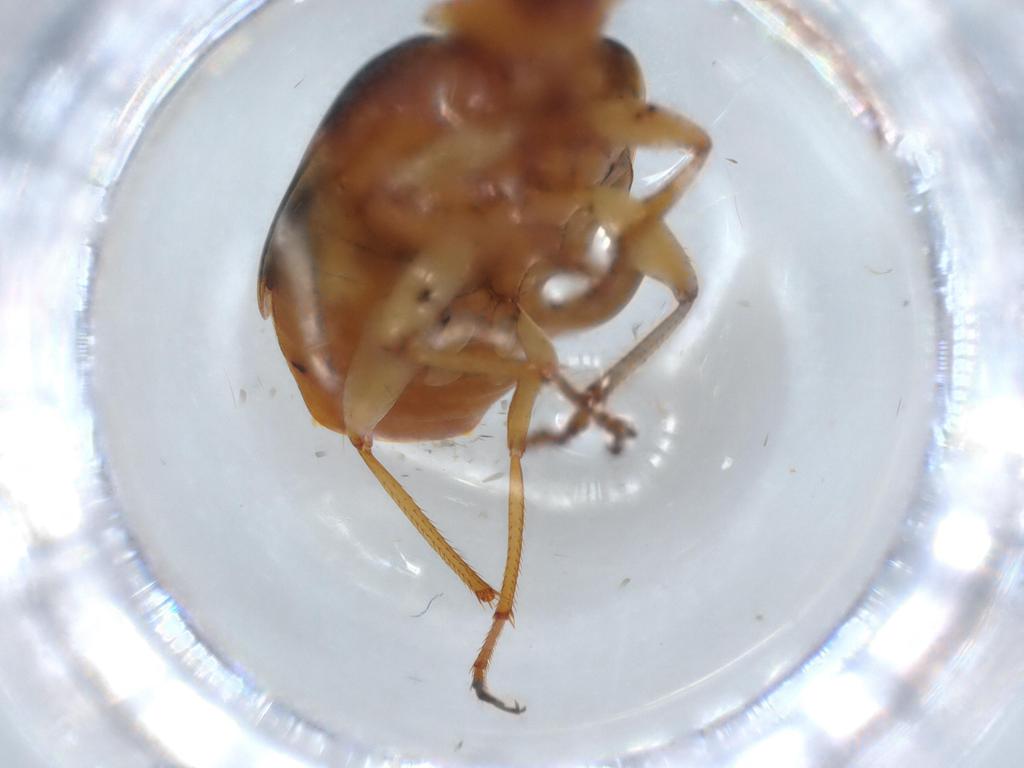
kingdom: Animalia
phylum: Arthropoda
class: Insecta
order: Coleoptera
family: Carabidae
